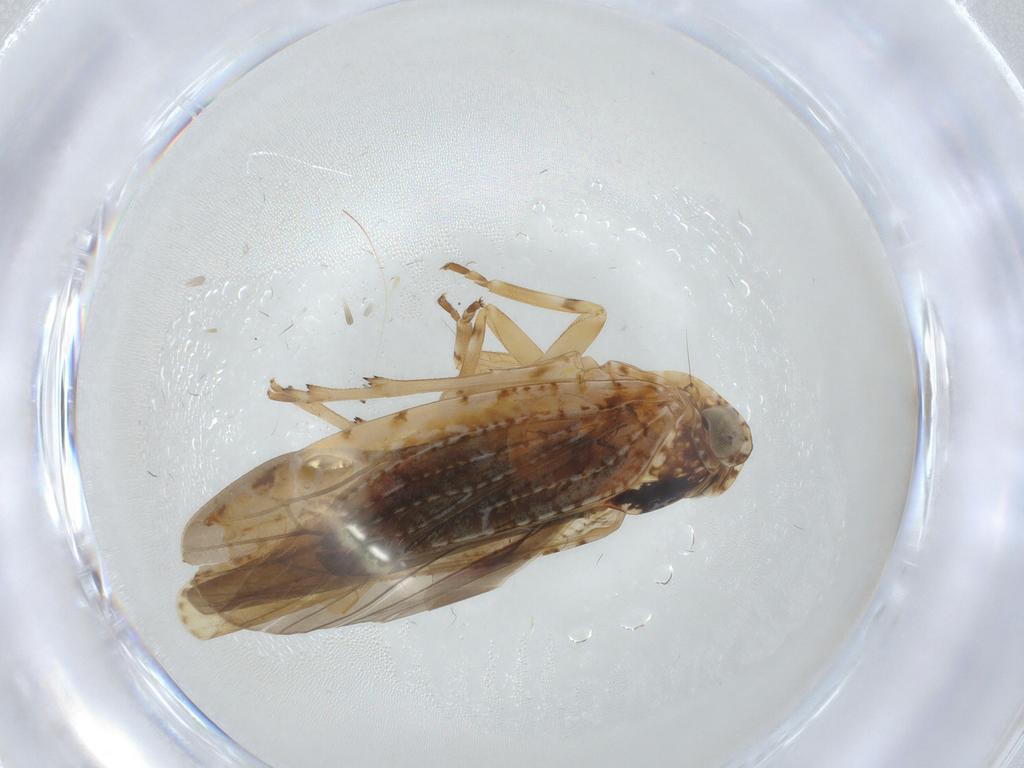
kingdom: Animalia
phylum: Arthropoda
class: Insecta
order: Hemiptera
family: Achilidae
